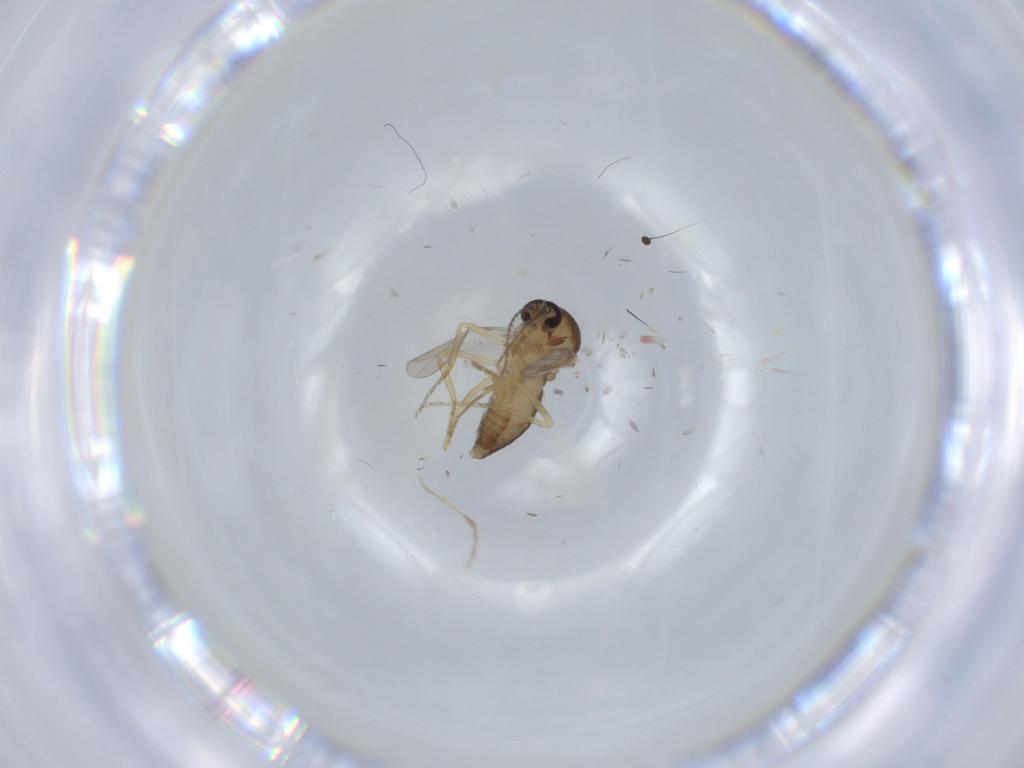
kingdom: Animalia
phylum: Arthropoda
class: Insecta
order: Diptera
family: Ceratopogonidae
